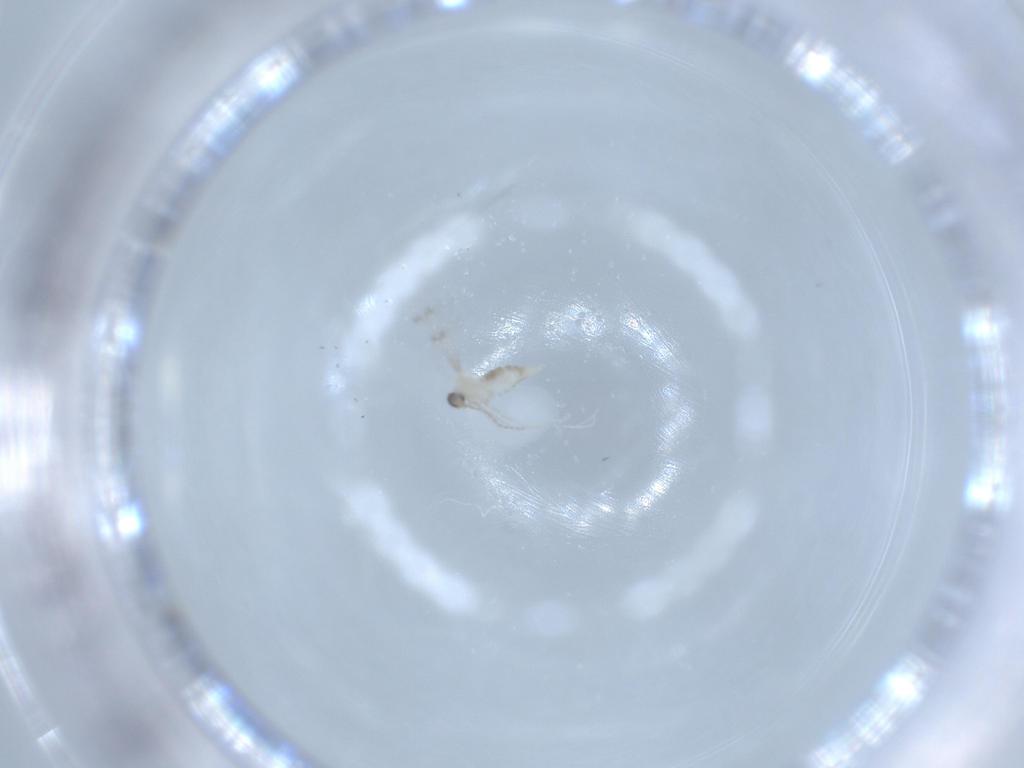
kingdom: Animalia
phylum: Arthropoda
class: Insecta
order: Diptera
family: Cecidomyiidae
